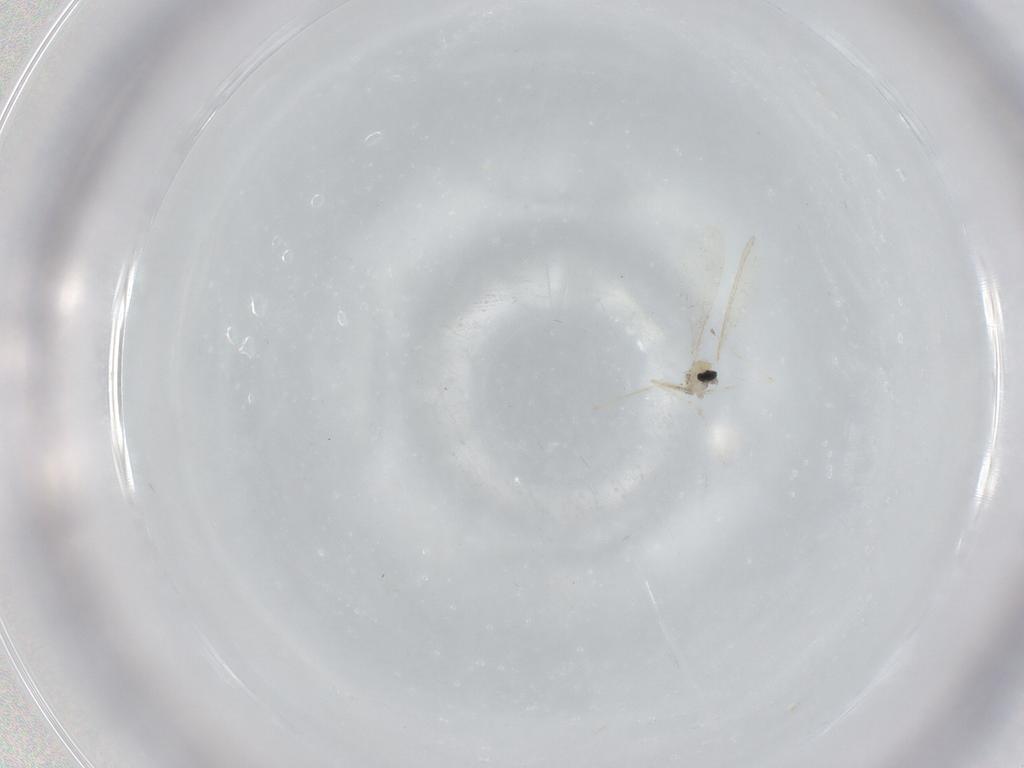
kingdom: Animalia
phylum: Arthropoda
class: Insecta
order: Diptera
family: Cecidomyiidae
